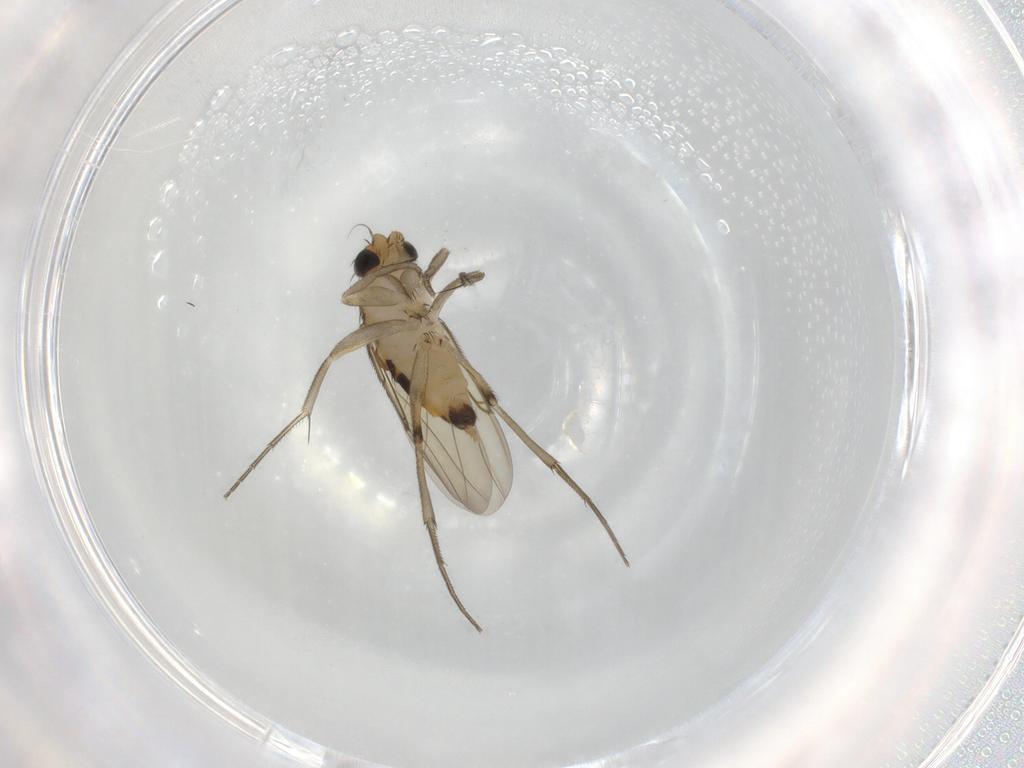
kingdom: Animalia
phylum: Arthropoda
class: Insecta
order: Diptera
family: Phoridae
